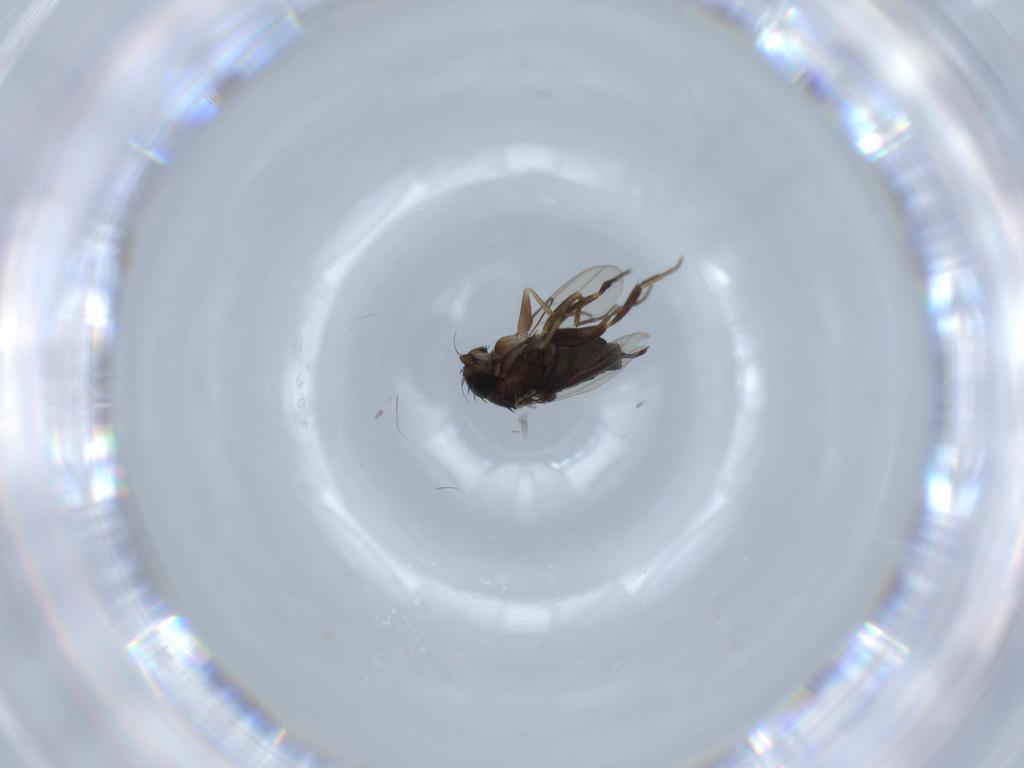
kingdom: Animalia
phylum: Arthropoda
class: Insecta
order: Diptera
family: Phoridae
